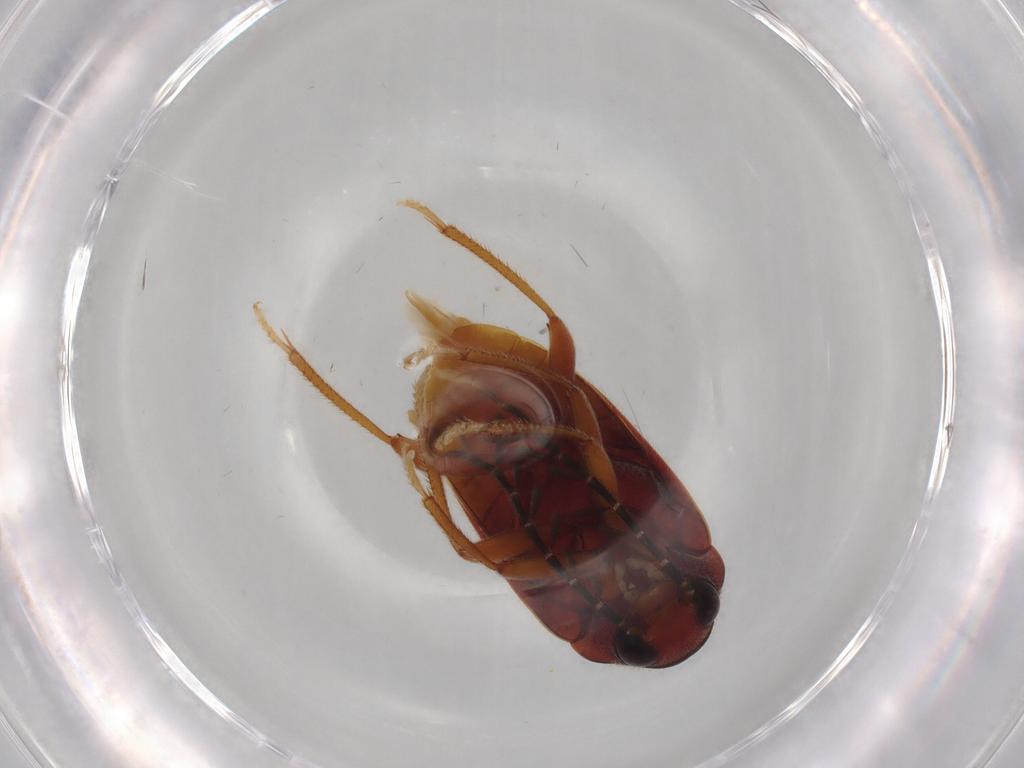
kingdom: Animalia
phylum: Arthropoda
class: Insecta
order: Coleoptera
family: Ptilodactylidae
